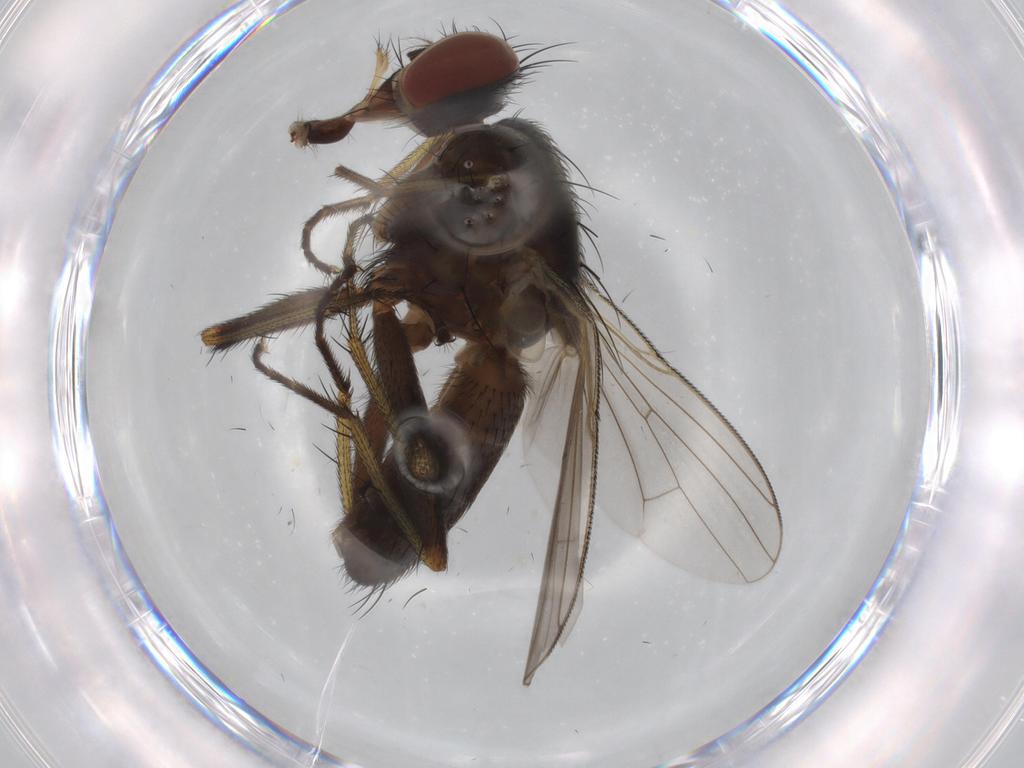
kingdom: Animalia
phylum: Arthropoda
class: Insecta
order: Diptera
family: Muscidae
